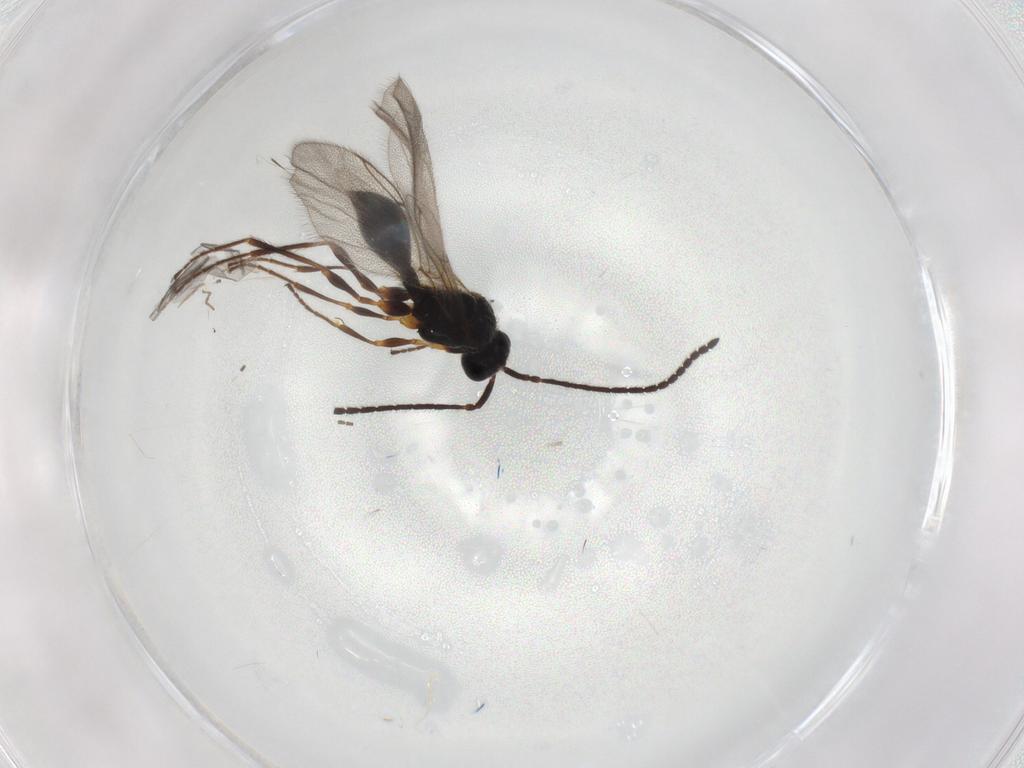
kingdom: Animalia
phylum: Arthropoda
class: Insecta
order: Hymenoptera
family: Diapriidae
